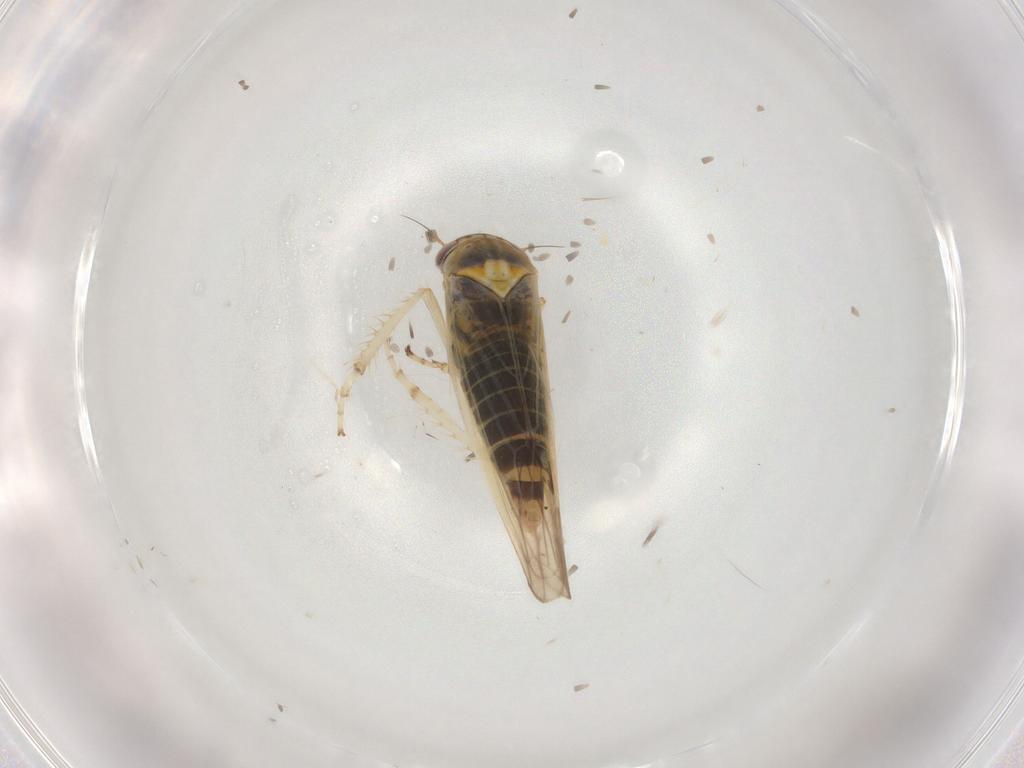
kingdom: Animalia
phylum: Arthropoda
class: Insecta
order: Hemiptera
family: Cicadellidae
